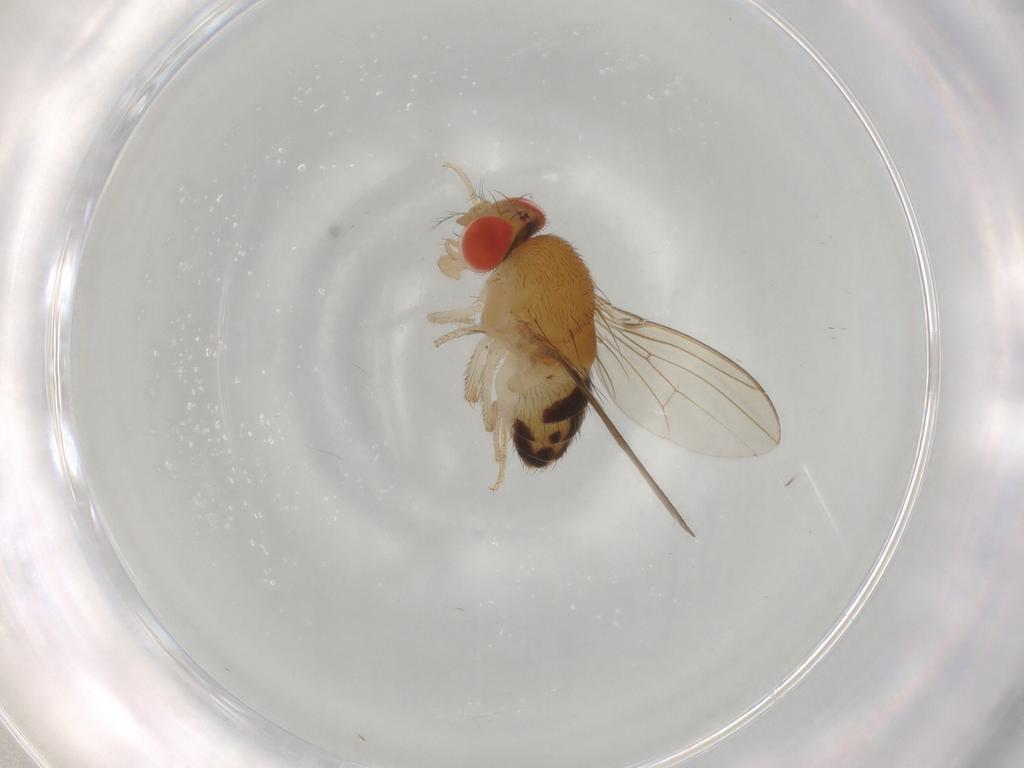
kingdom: Animalia
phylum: Arthropoda
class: Insecta
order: Diptera
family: Drosophilidae
